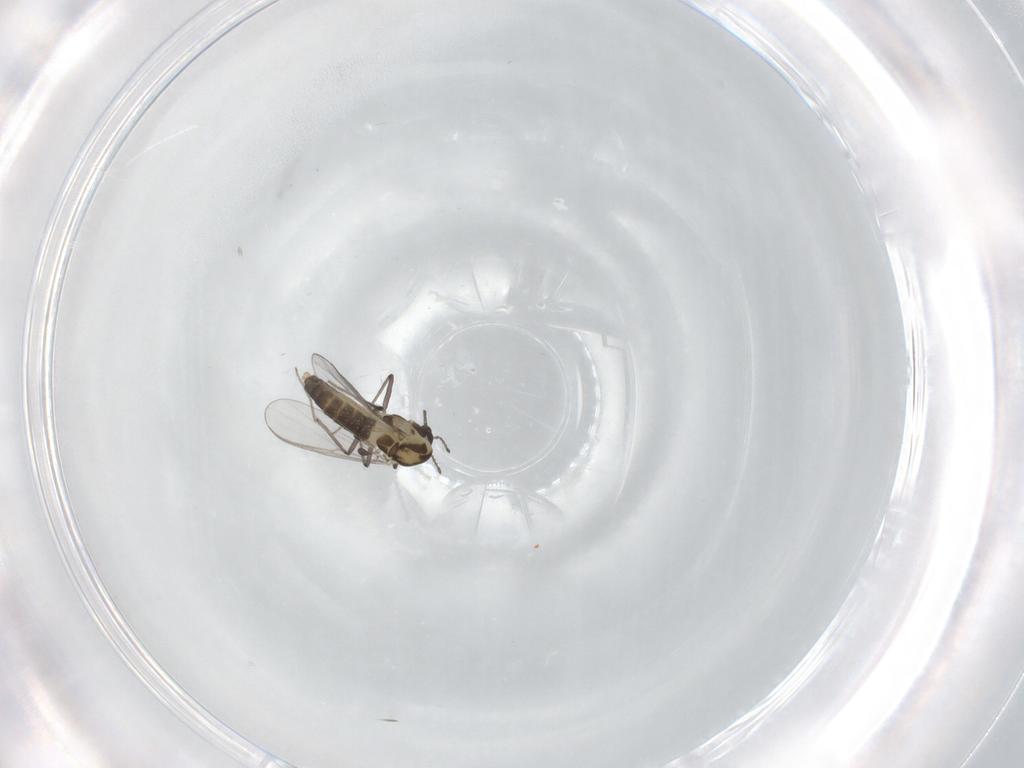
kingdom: Animalia
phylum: Arthropoda
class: Insecta
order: Diptera
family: Chironomidae
